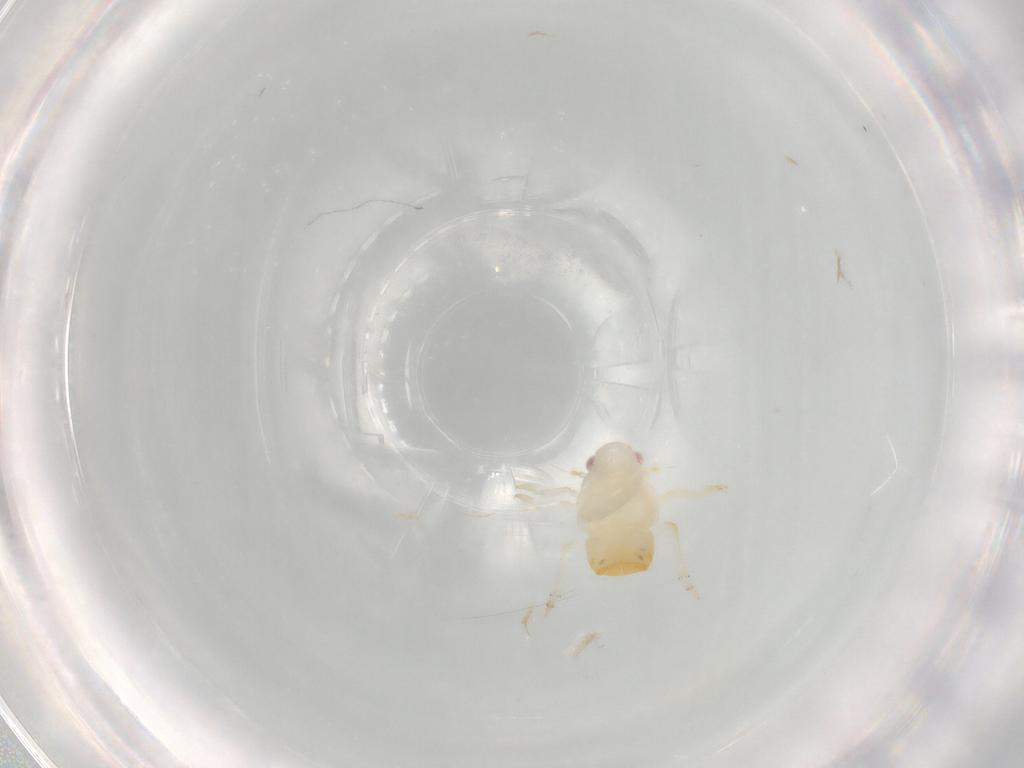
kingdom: Animalia
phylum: Arthropoda
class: Insecta
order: Hemiptera
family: Flatidae
